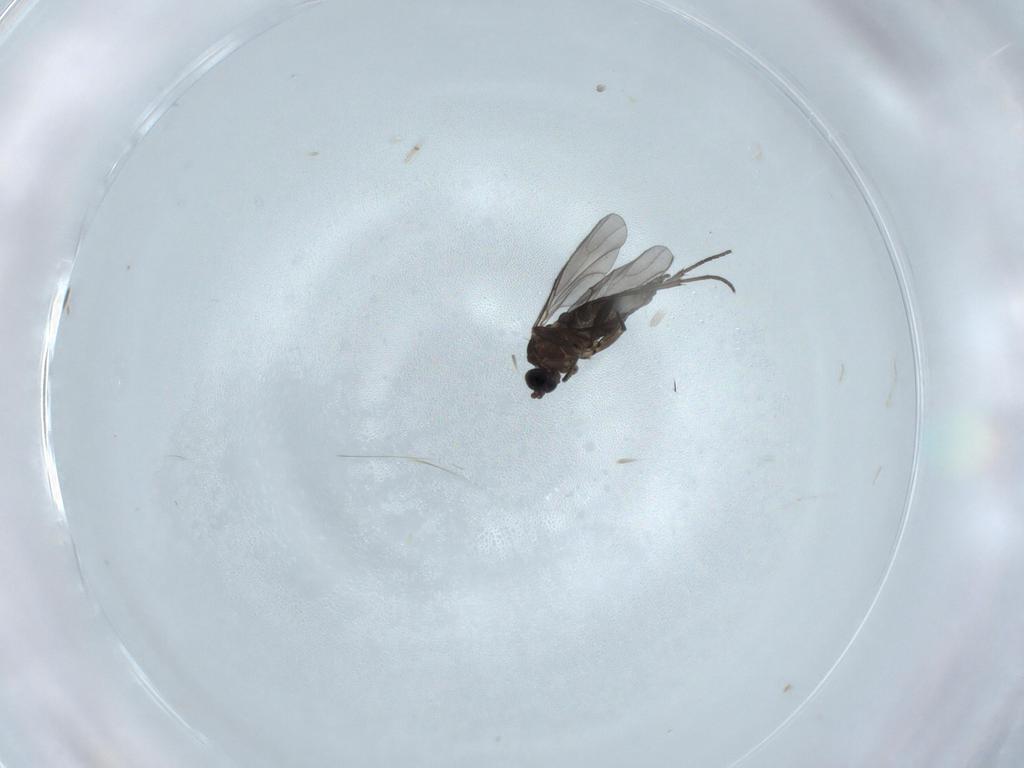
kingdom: Animalia
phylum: Arthropoda
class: Insecta
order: Diptera
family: Sciaridae
